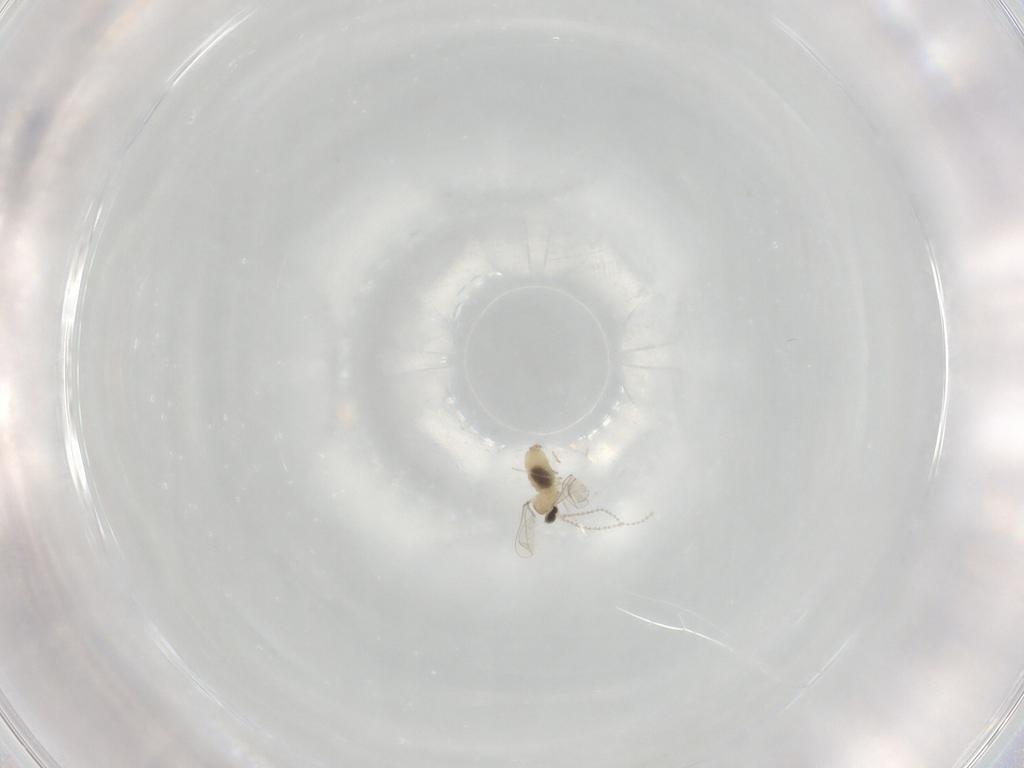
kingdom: Animalia
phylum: Arthropoda
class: Insecta
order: Diptera
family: Cecidomyiidae
